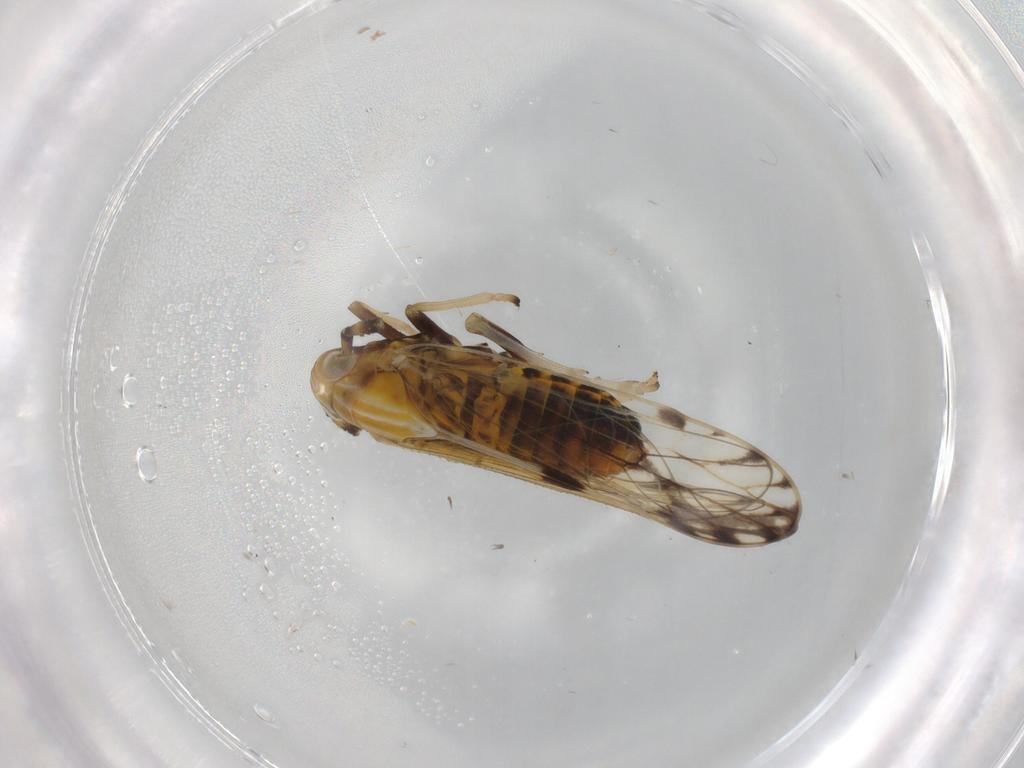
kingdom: Animalia
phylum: Arthropoda
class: Insecta
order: Hemiptera
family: Delphacidae
